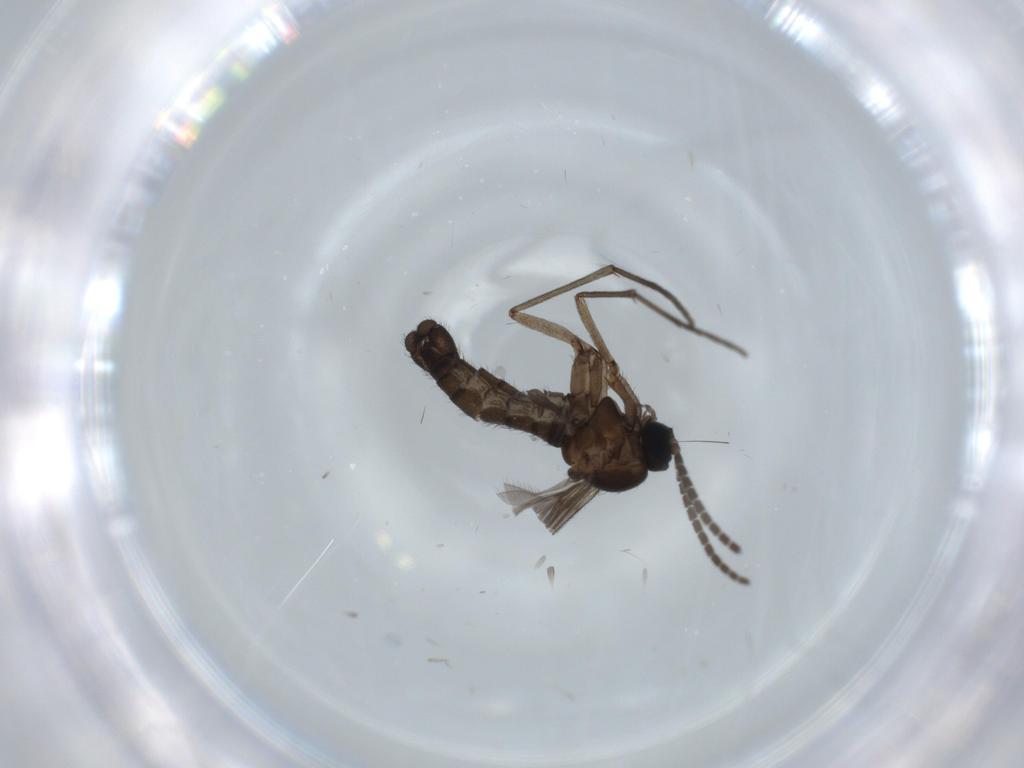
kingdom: Animalia
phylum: Arthropoda
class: Insecta
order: Diptera
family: Sciaridae
